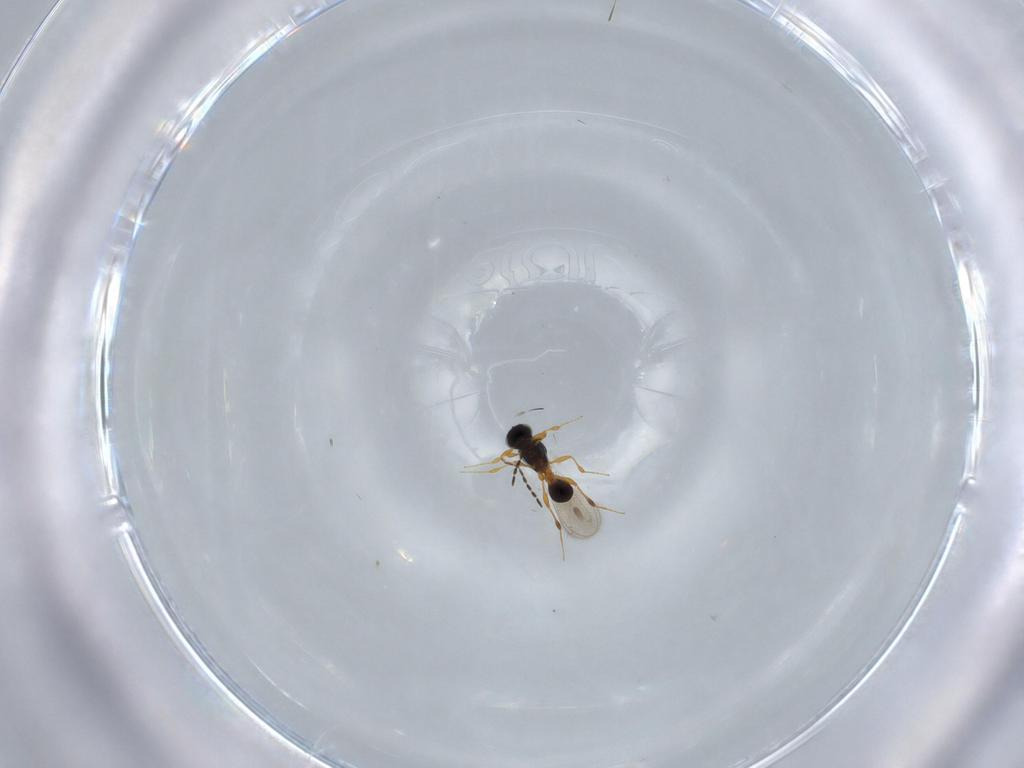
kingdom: Animalia
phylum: Arthropoda
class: Insecta
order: Hymenoptera
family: Platygastridae
